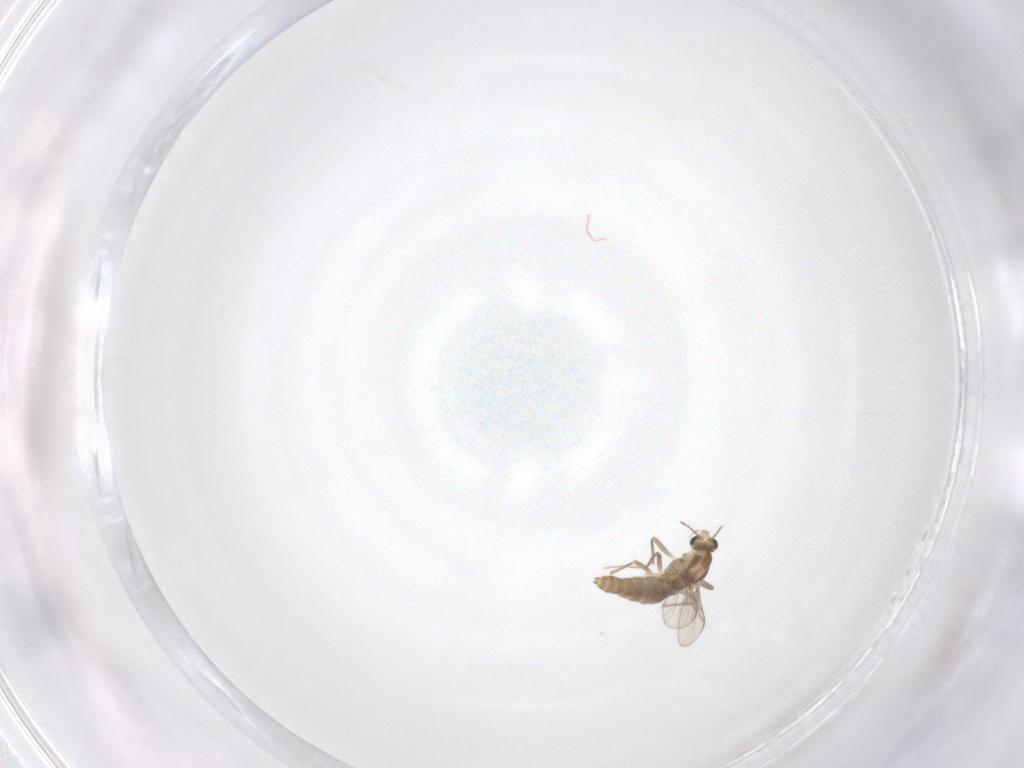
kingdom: Animalia
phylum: Arthropoda
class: Insecta
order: Diptera
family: Chironomidae
